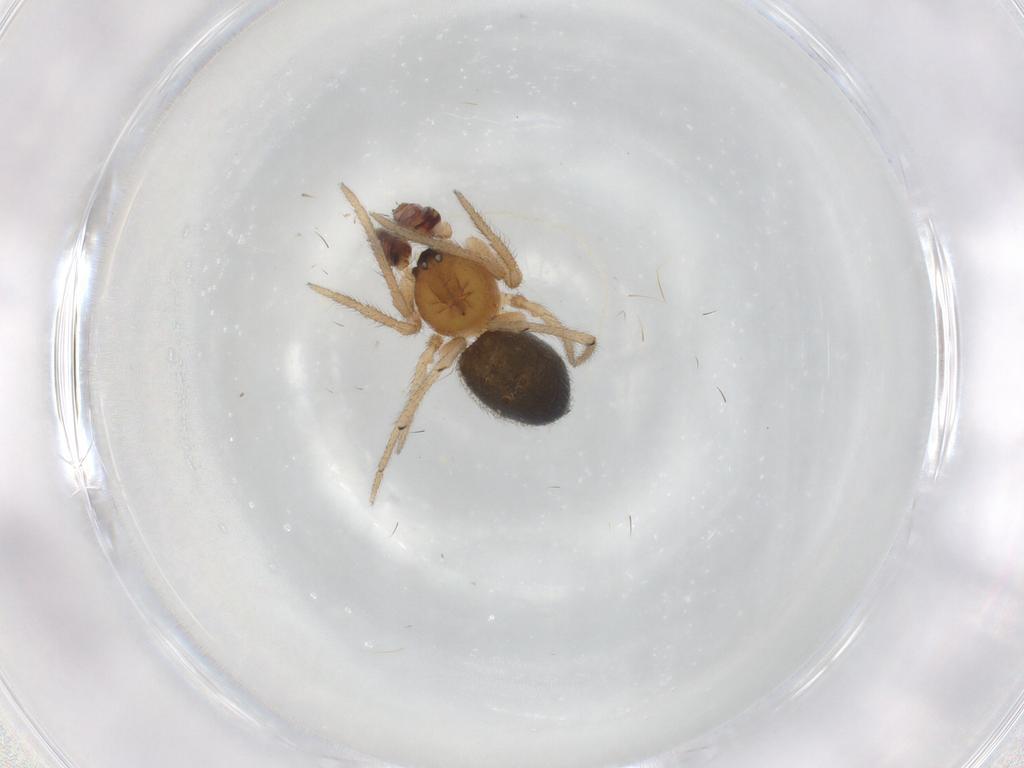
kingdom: Animalia
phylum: Arthropoda
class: Arachnida
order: Araneae
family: Theridiidae
